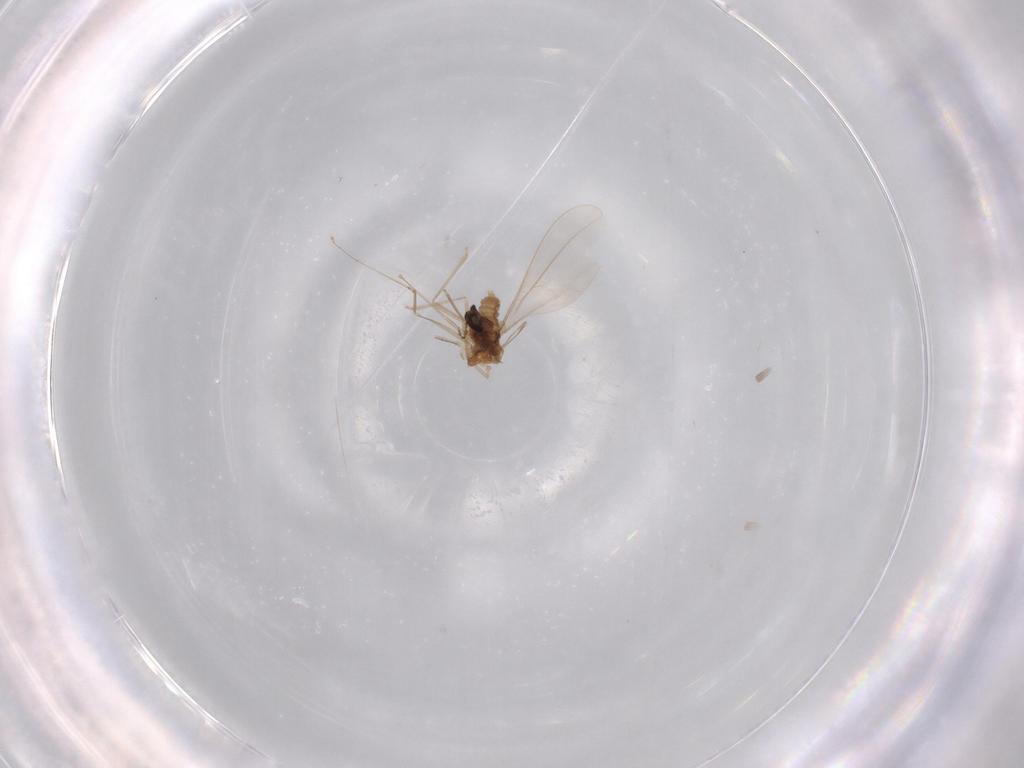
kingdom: Animalia
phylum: Arthropoda
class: Insecta
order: Diptera
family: Cecidomyiidae
